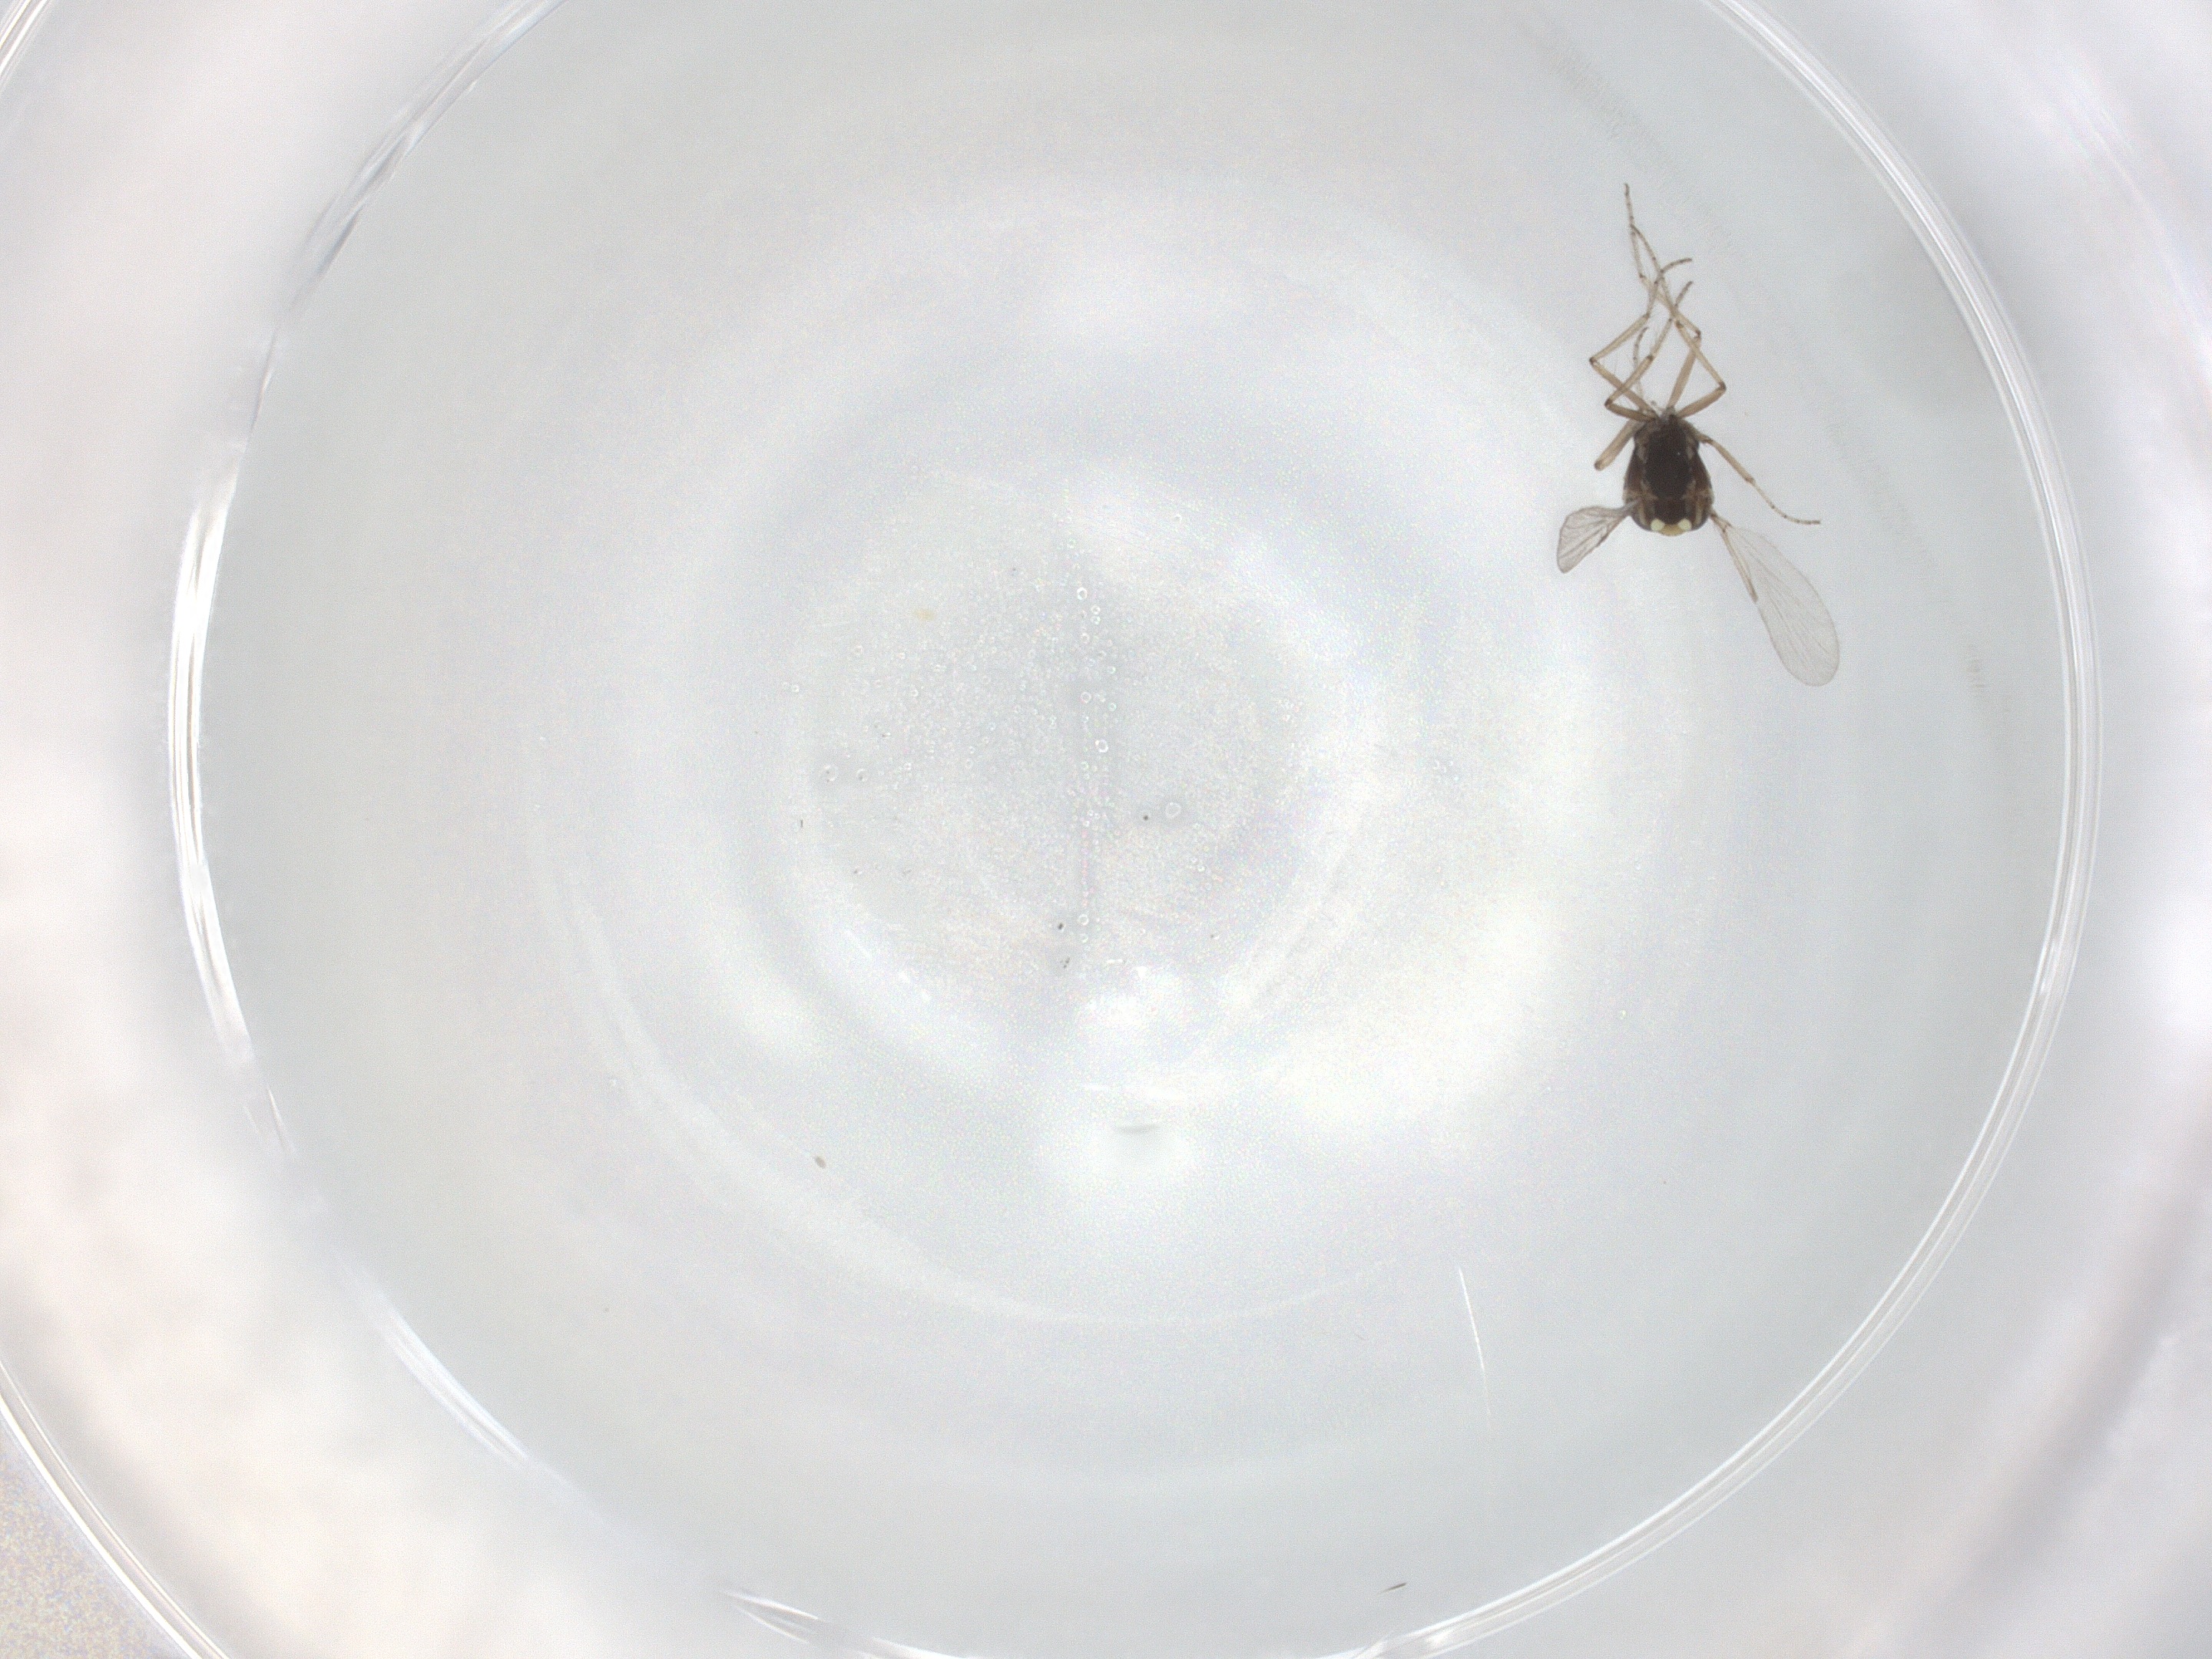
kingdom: Animalia
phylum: Arthropoda
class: Insecta
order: Diptera
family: Ceratopogonidae
